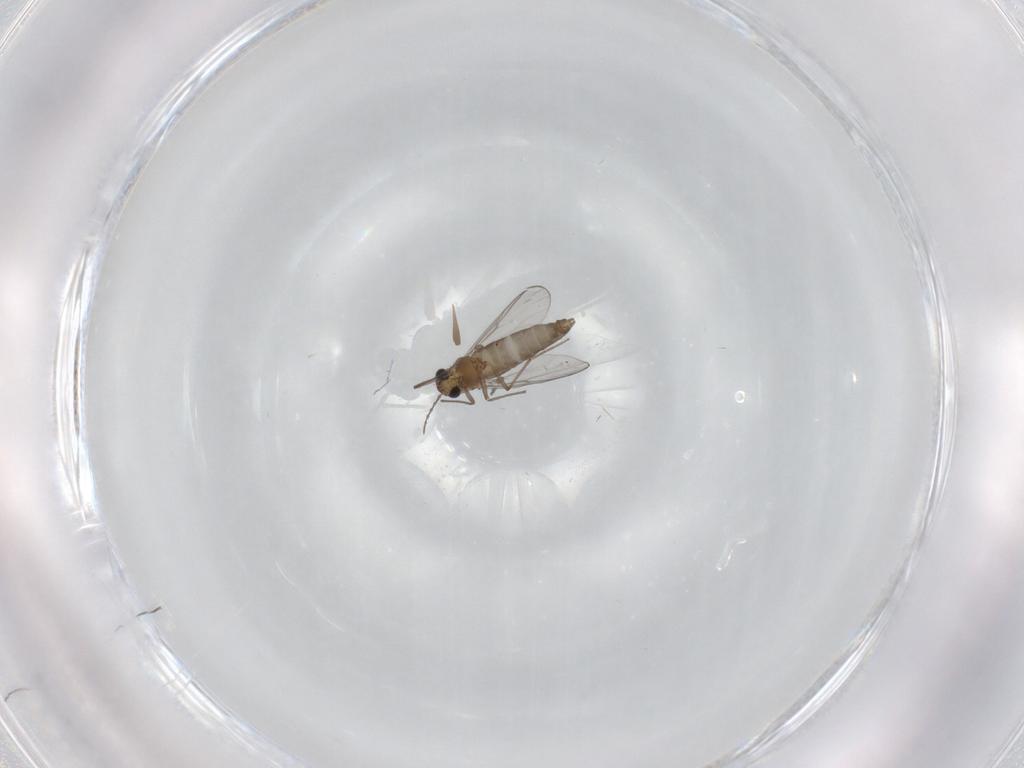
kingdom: Animalia
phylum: Arthropoda
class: Insecta
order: Diptera
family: Chironomidae
